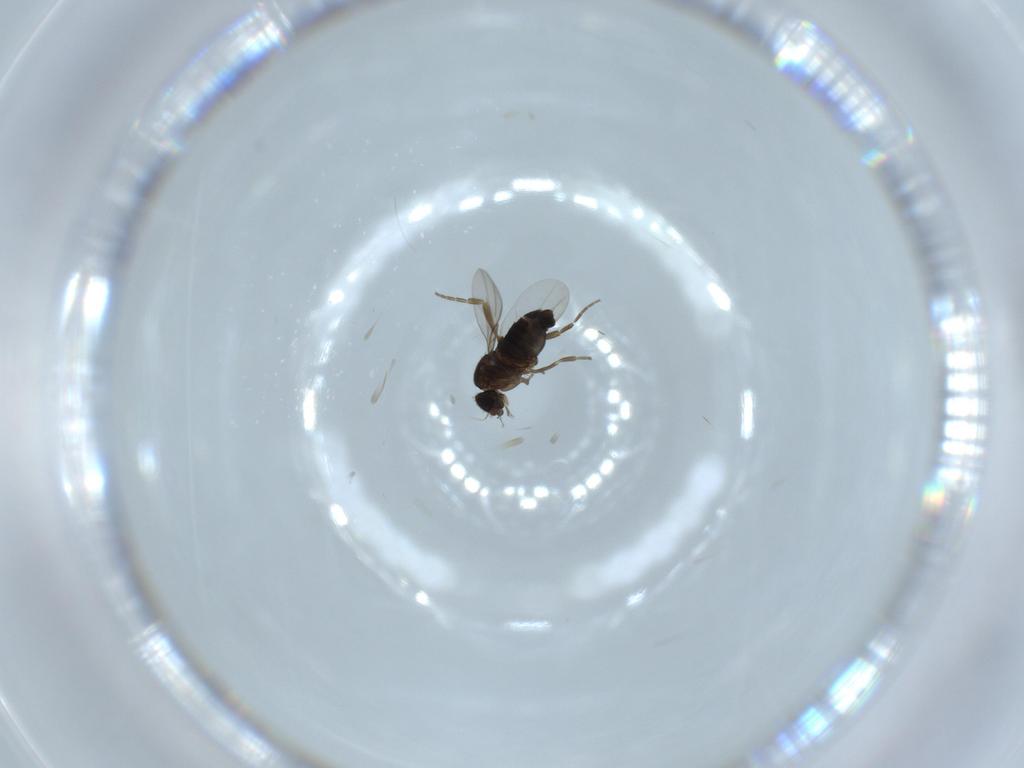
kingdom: Animalia
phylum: Arthropoda
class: Insecta
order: Diptera
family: Phoridae
